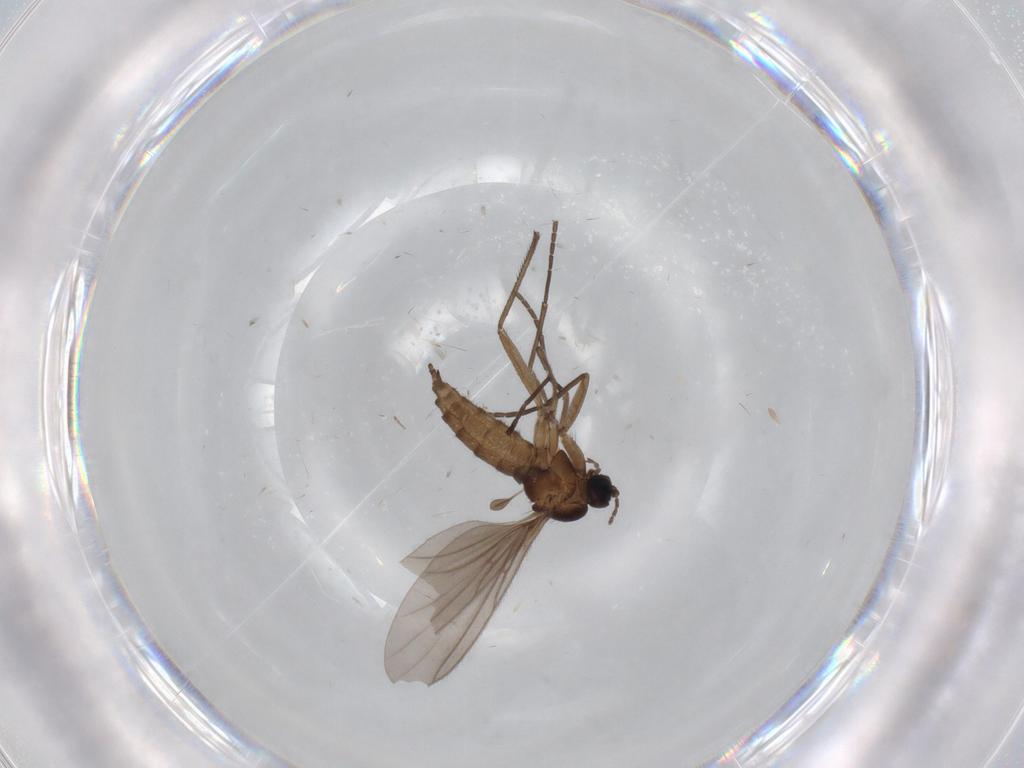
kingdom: Animalia
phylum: Arthropoda
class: Insecta
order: Diptera
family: Sciaridae
